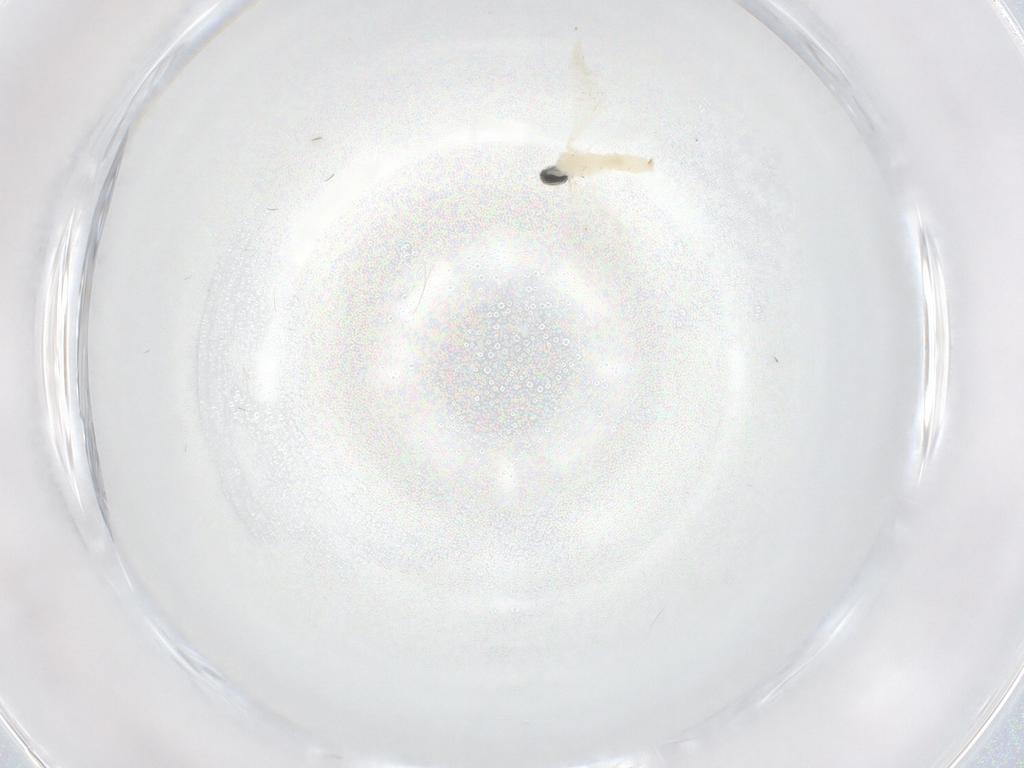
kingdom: Animalia
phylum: Arthropoda
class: Insecta
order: Diptera
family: Cecidomyiidae
